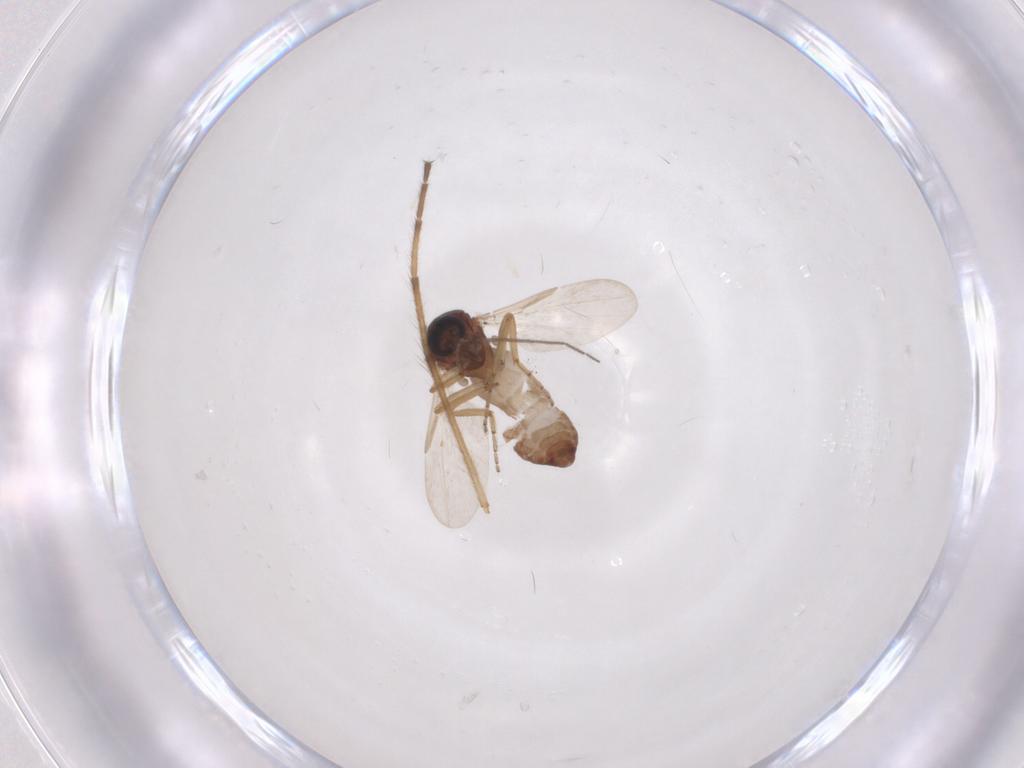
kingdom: Animalia
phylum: Arthropoda
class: Insecta
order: Diptera
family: Ceratopogonidae
